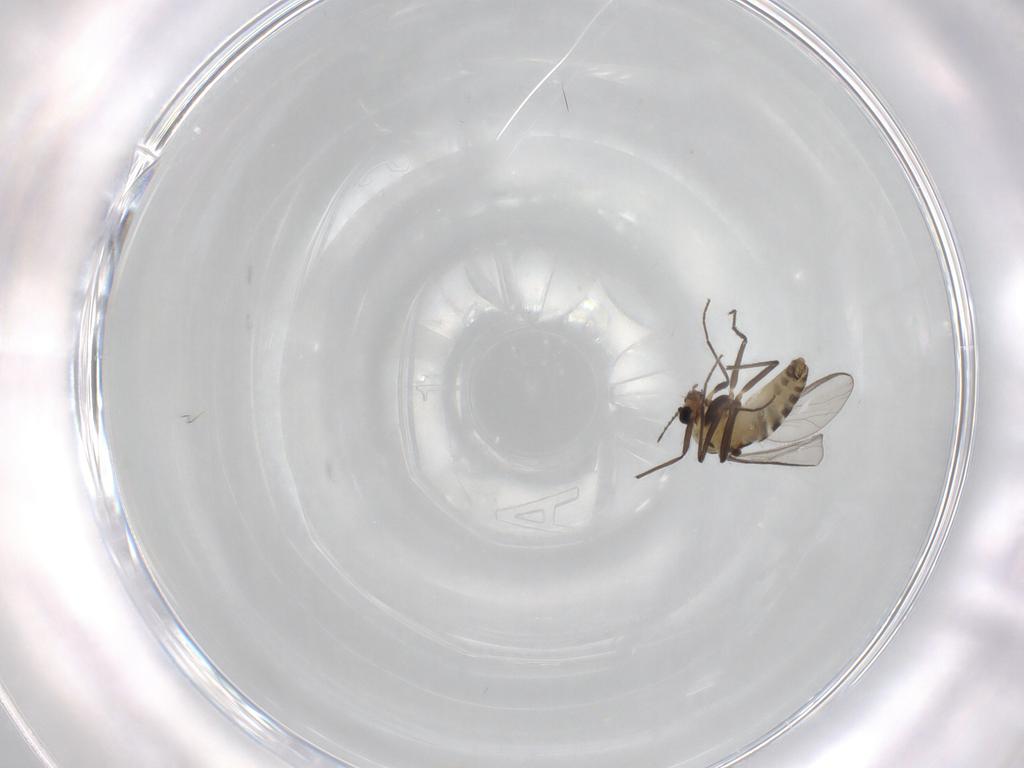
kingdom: Animalia
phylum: Arthropoda
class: Insecta
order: Diptera
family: Chironomidae
